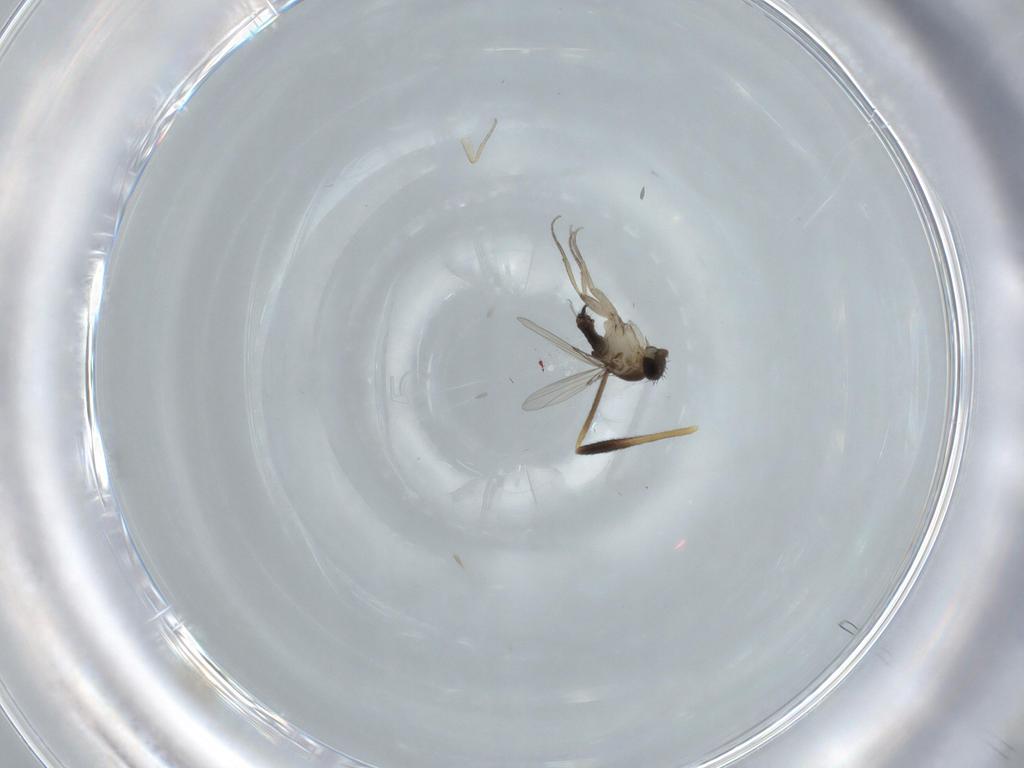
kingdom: Animalia
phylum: Arthropoda
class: Insecta
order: Diptera
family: Chironomidae
